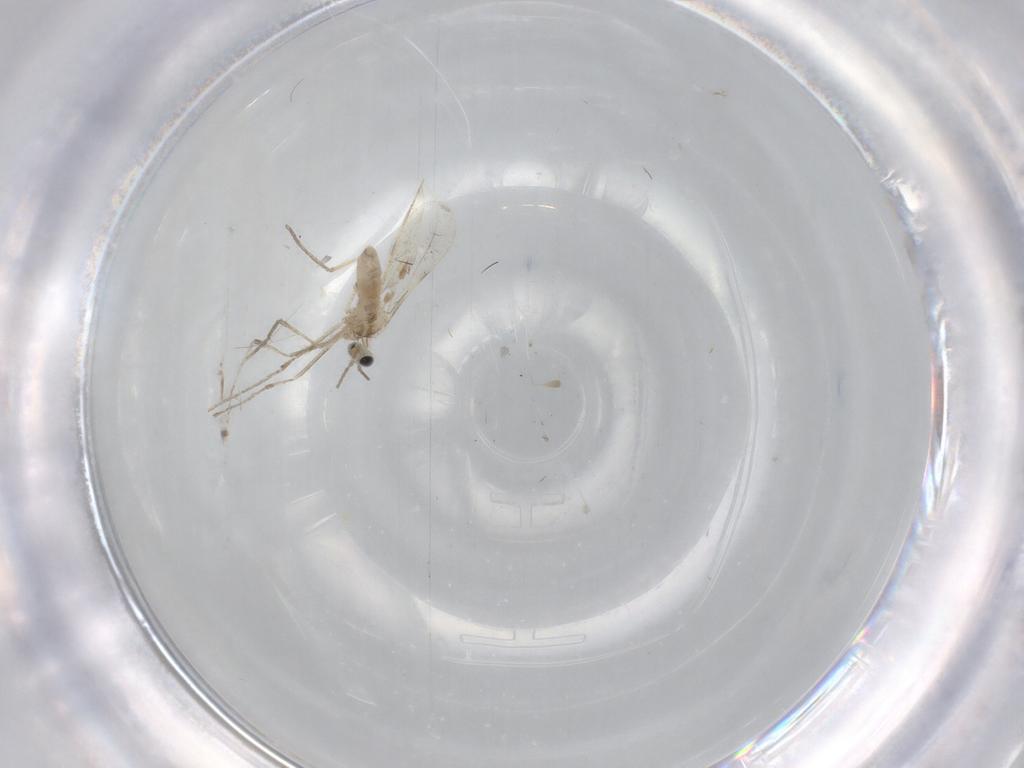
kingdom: Animalia
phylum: Arthropoda
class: Insecta
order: Diptera
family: Cecidomyiidae
